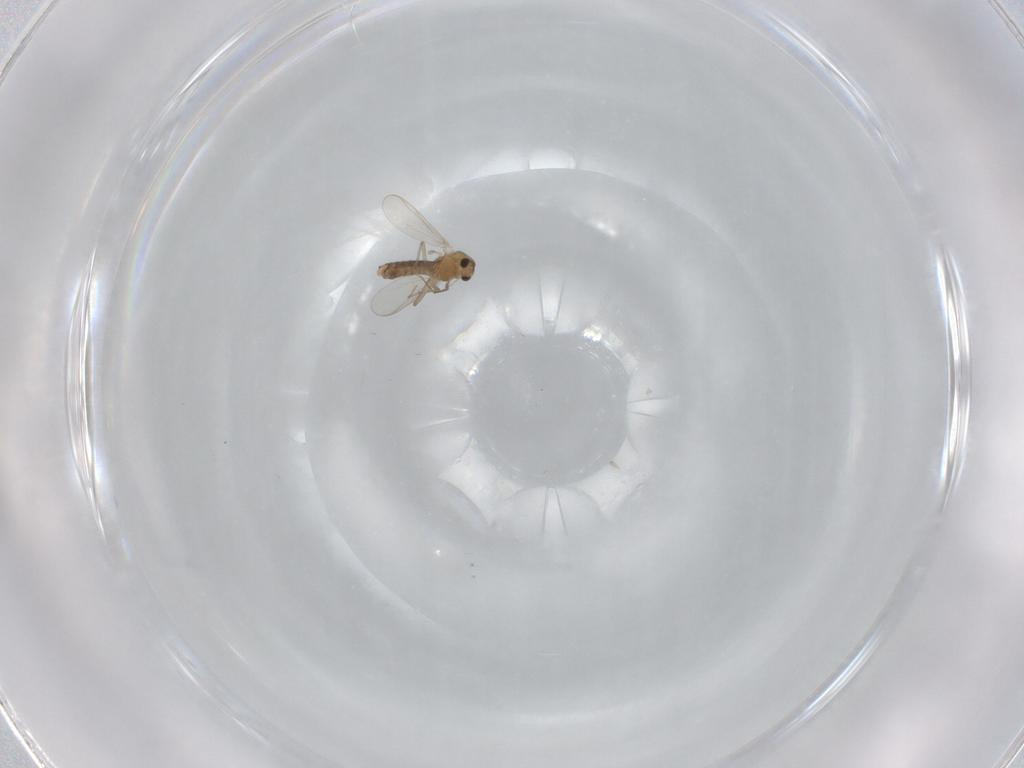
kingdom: Animalia
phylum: Arthropoda
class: Insecta
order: Diptera
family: Chironomidae
